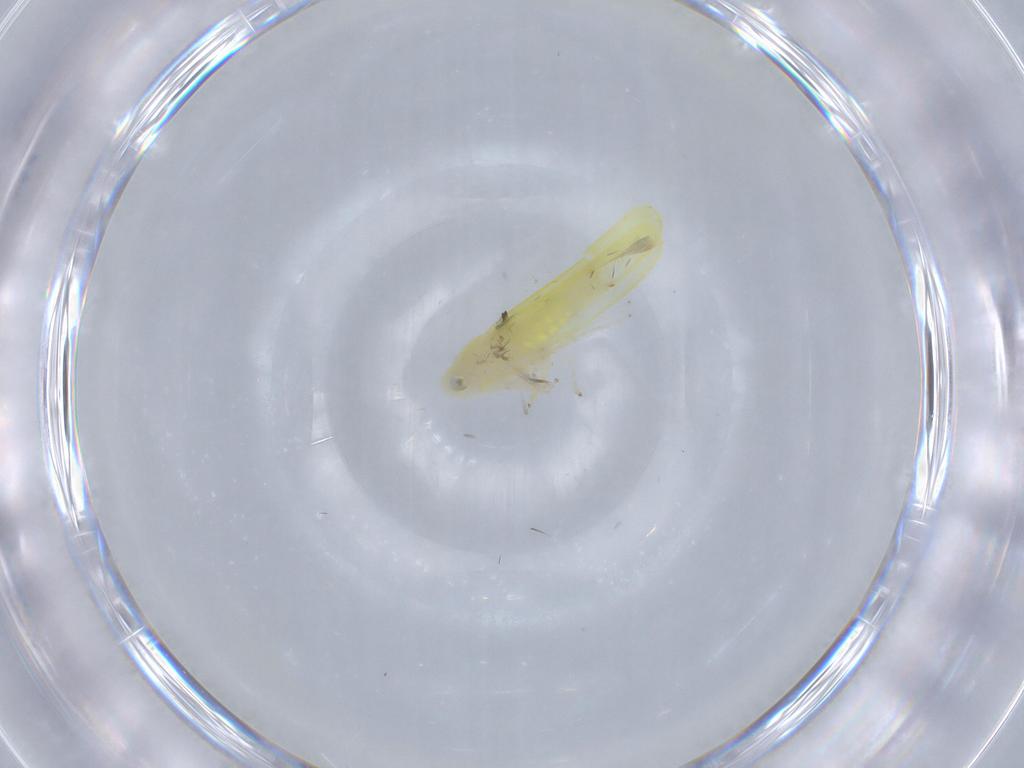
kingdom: Animalia
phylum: Arthropoda
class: Insecta
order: Hemiptera
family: Cicadellidae
